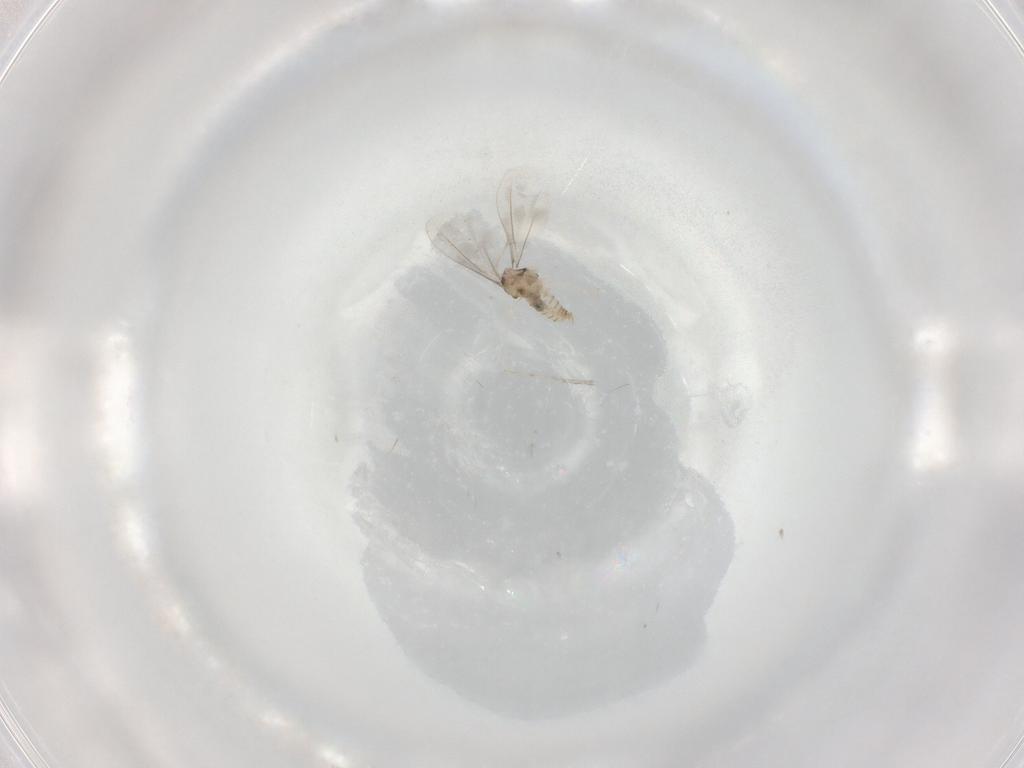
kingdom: Animalia
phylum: Arthropoda
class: Insecta
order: Diptera
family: Cecidomyiidae
